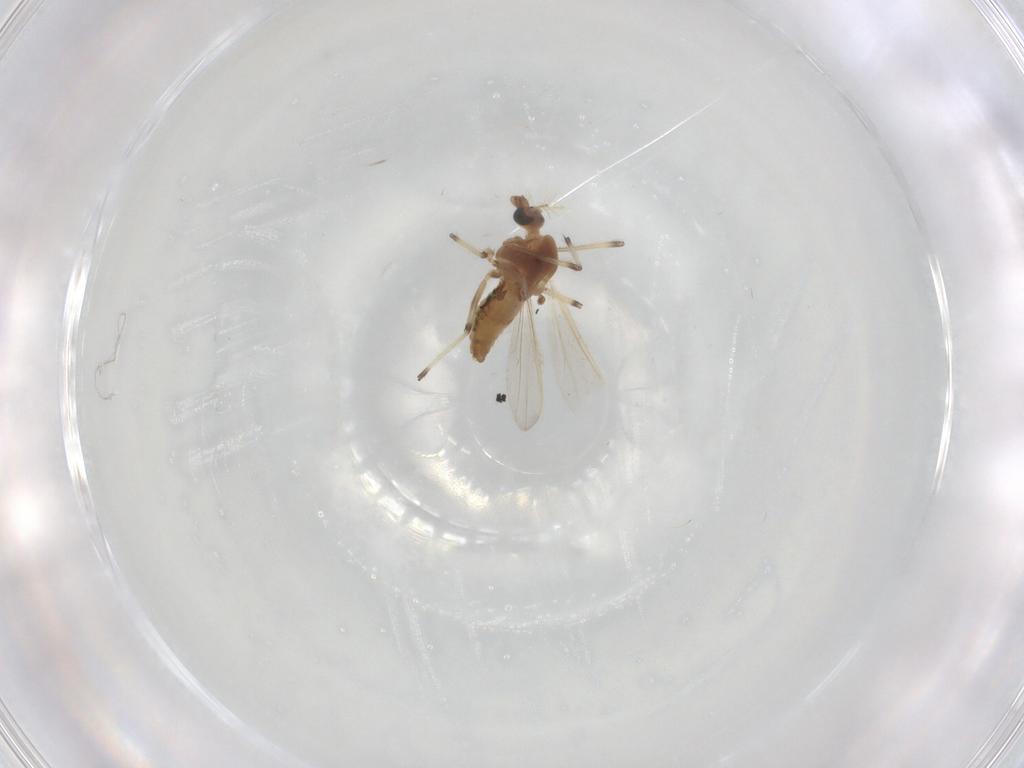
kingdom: Animalia
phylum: Arthropoda
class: Insecta
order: Diptera
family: Chironomidae
